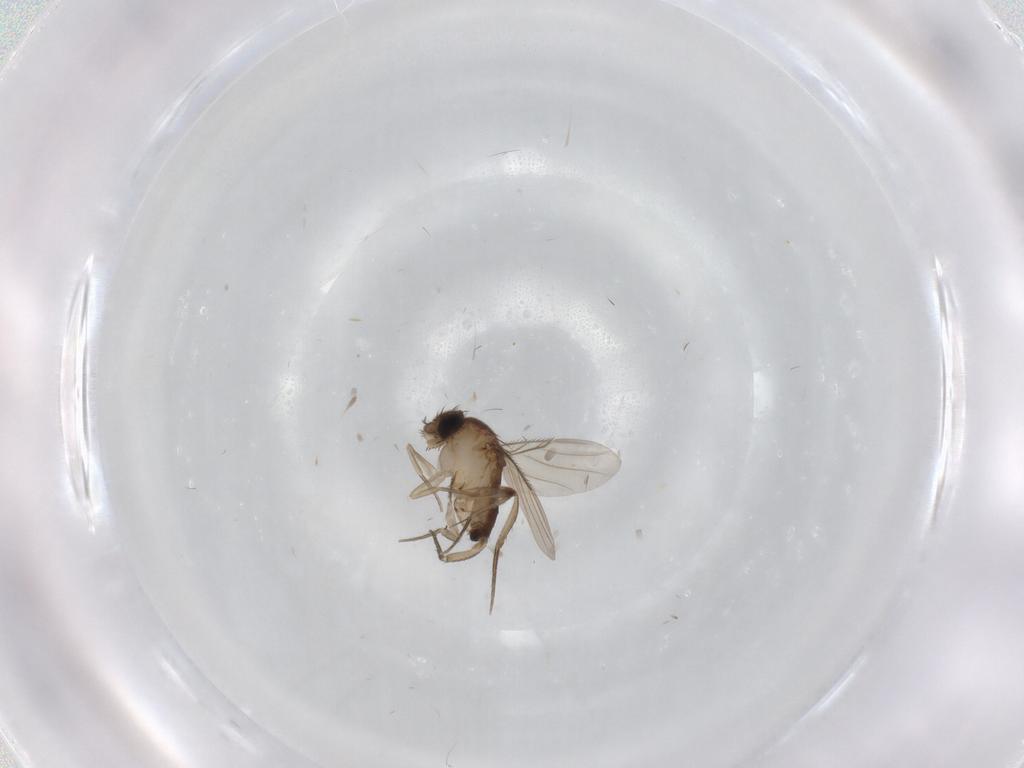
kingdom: Animalia
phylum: Arthropoda
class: Insecta
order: Diptera
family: Phoridae
